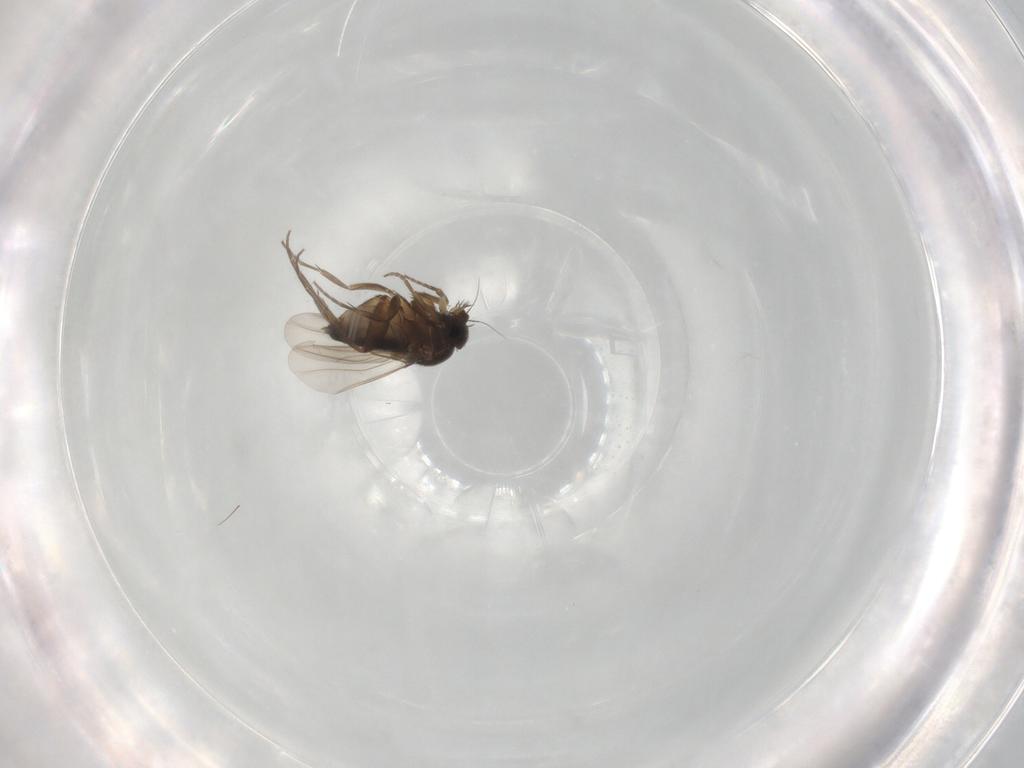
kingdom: Animalia
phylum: Arthropoda
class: Insecta
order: Diptera
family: Phoridae
